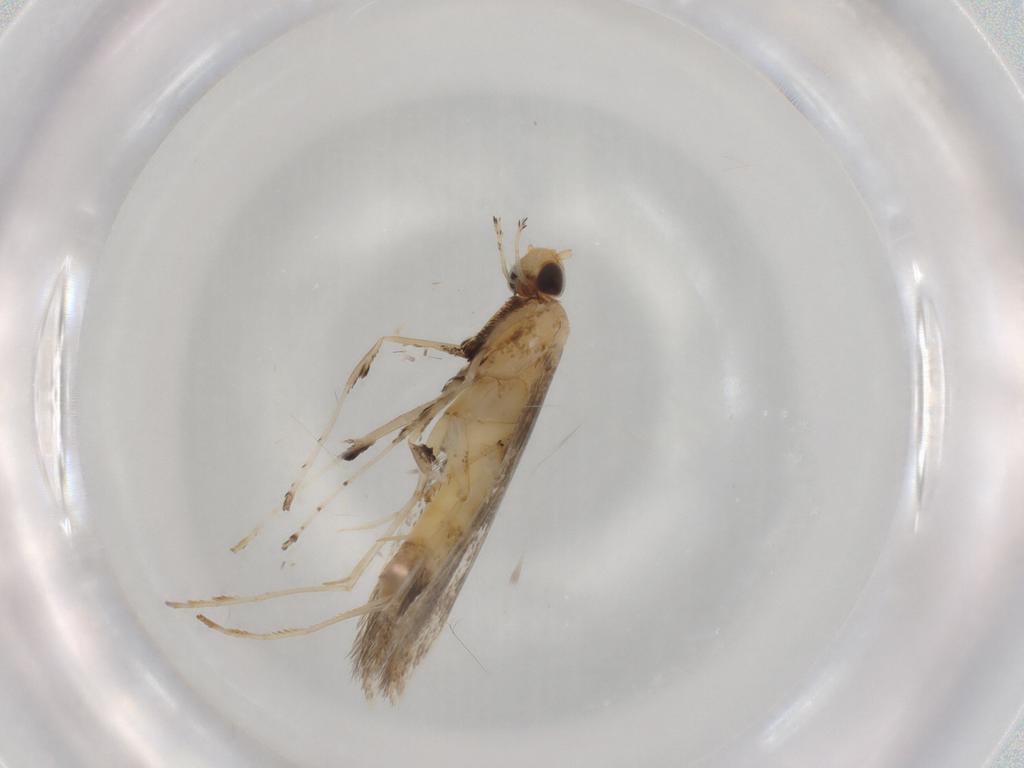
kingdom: Animalia
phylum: Arthropoda
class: Insecta
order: Lepidoptera
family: Gracillariidae
